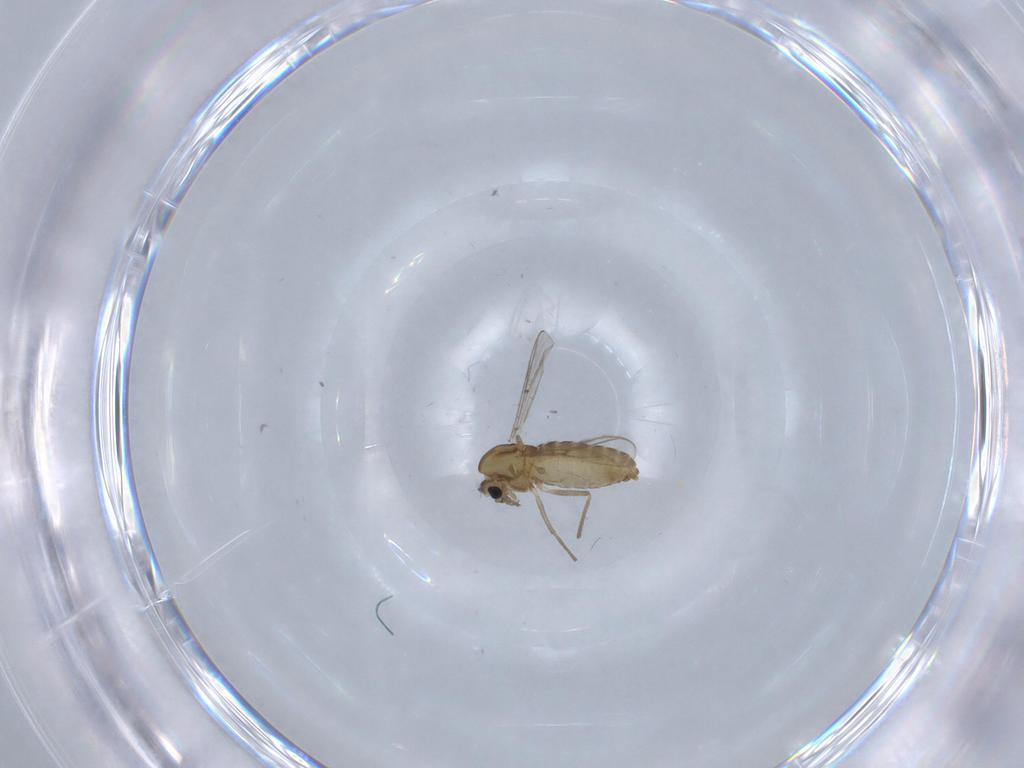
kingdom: Animalia
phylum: Arthropoda
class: Insecta
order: Diptera
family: Chironomidae
